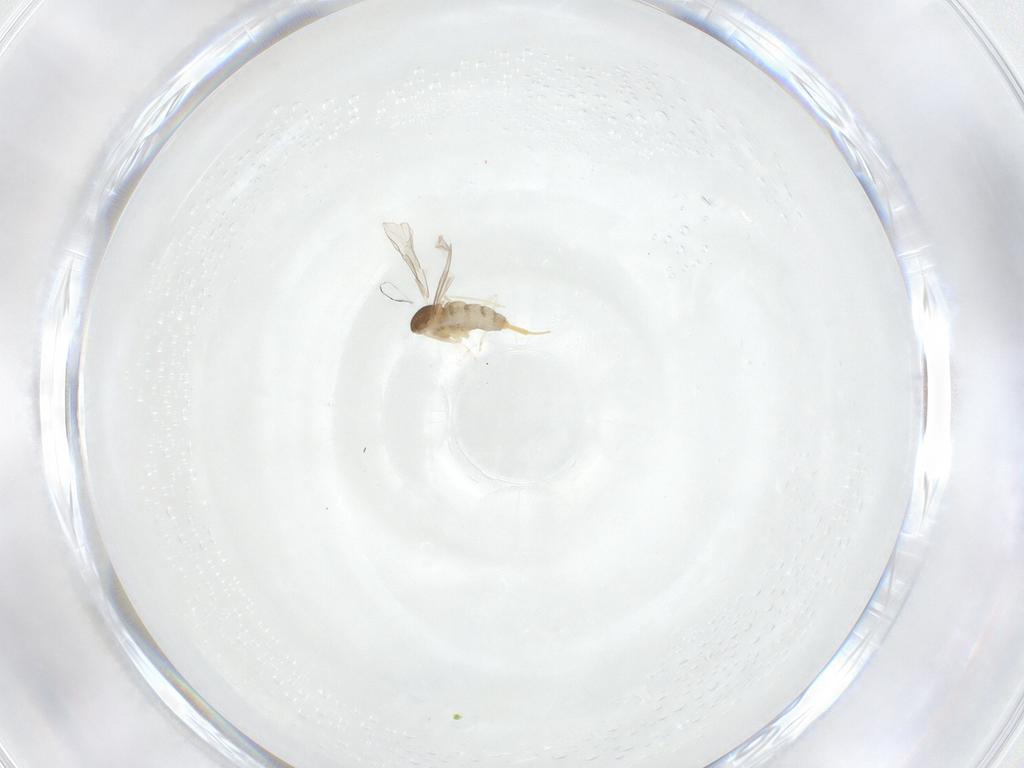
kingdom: Animalia
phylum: Arthropoda
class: Insecta
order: Diptera
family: Cecidomyiidae
